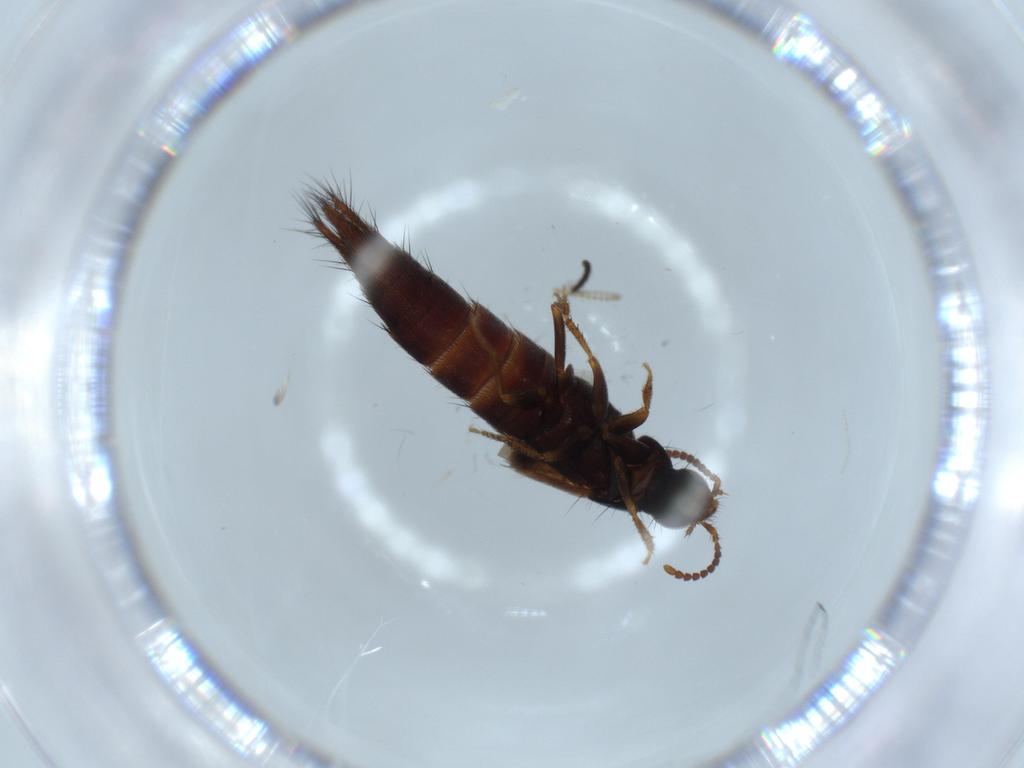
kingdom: Animalia
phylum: Arthropoda
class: Insecta
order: Coleoptera
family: Staphylinidae
